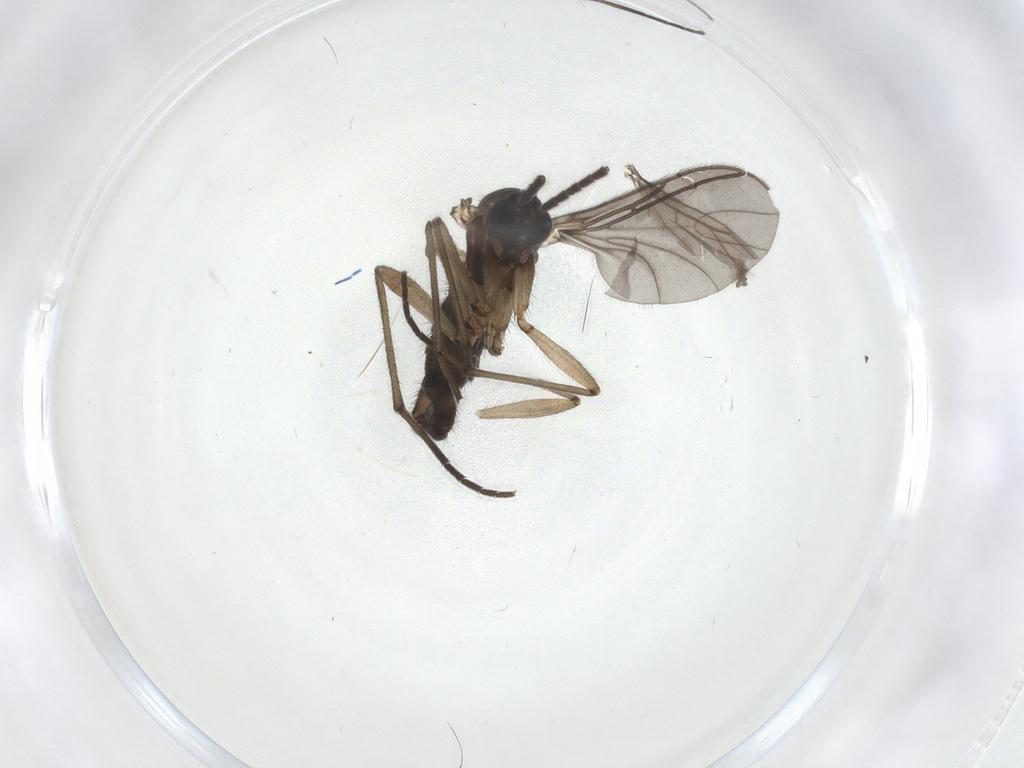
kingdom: Animalia
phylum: Arthropoda
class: Insecta
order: Diptera
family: Sciaridae
